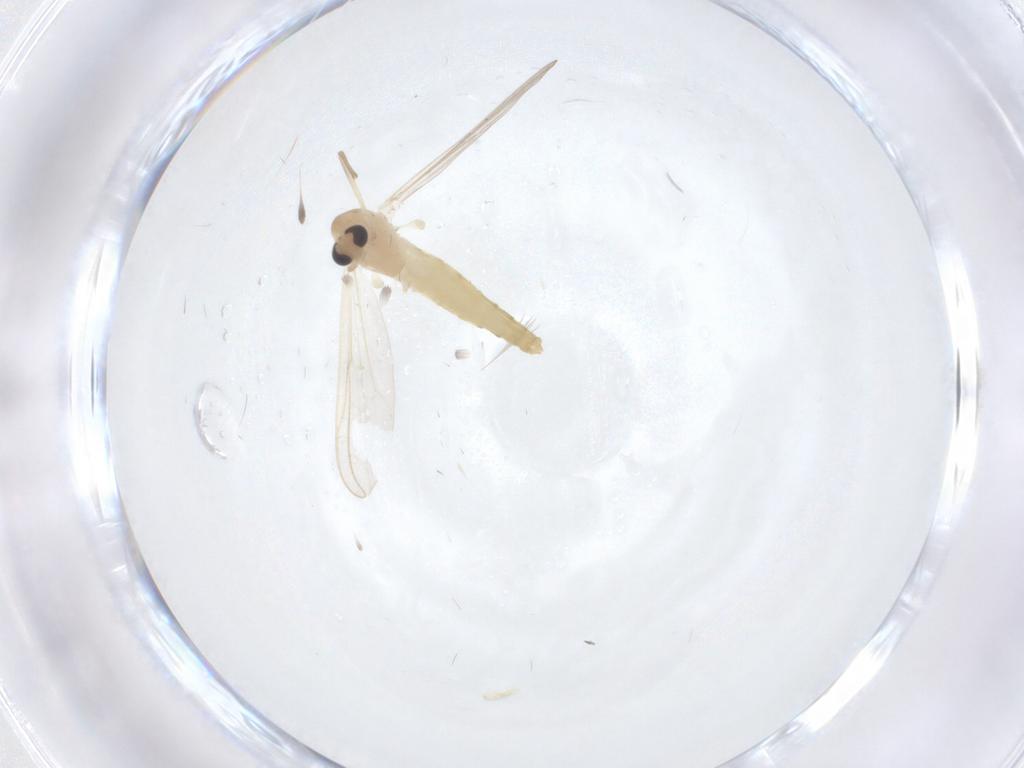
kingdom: Animalia
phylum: Arthropoda
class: Insecta
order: Diptera
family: Chironomidae
